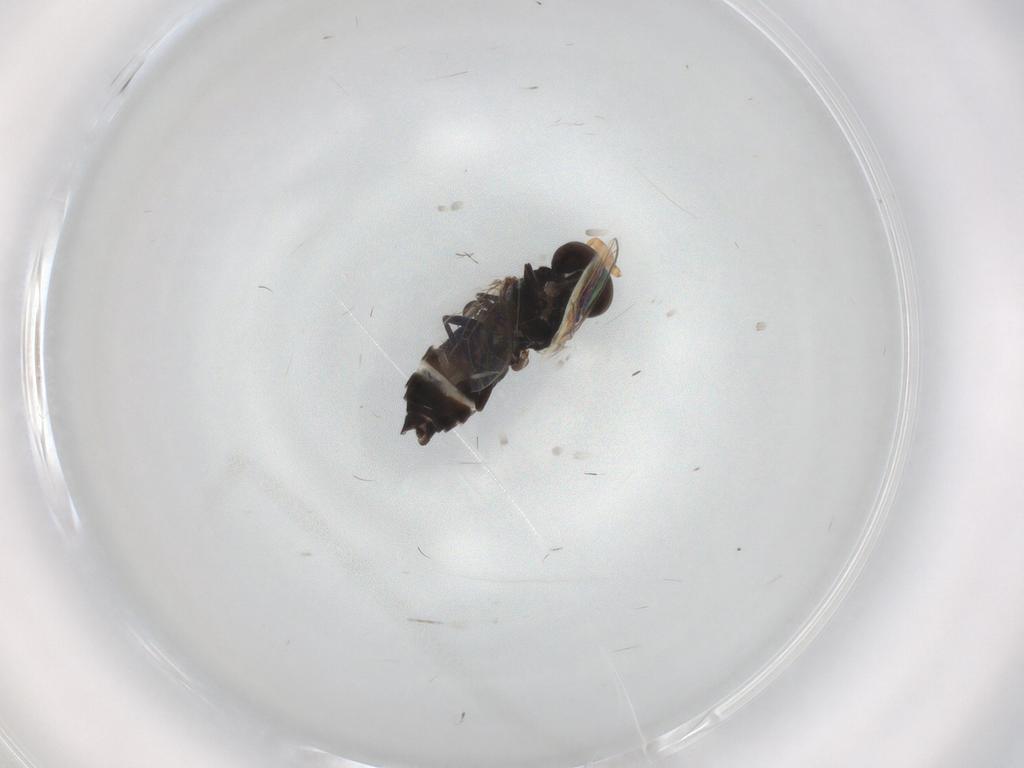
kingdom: Animalia
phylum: Arthropoda
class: Insecta
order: Diptera
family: Scenopinidae
